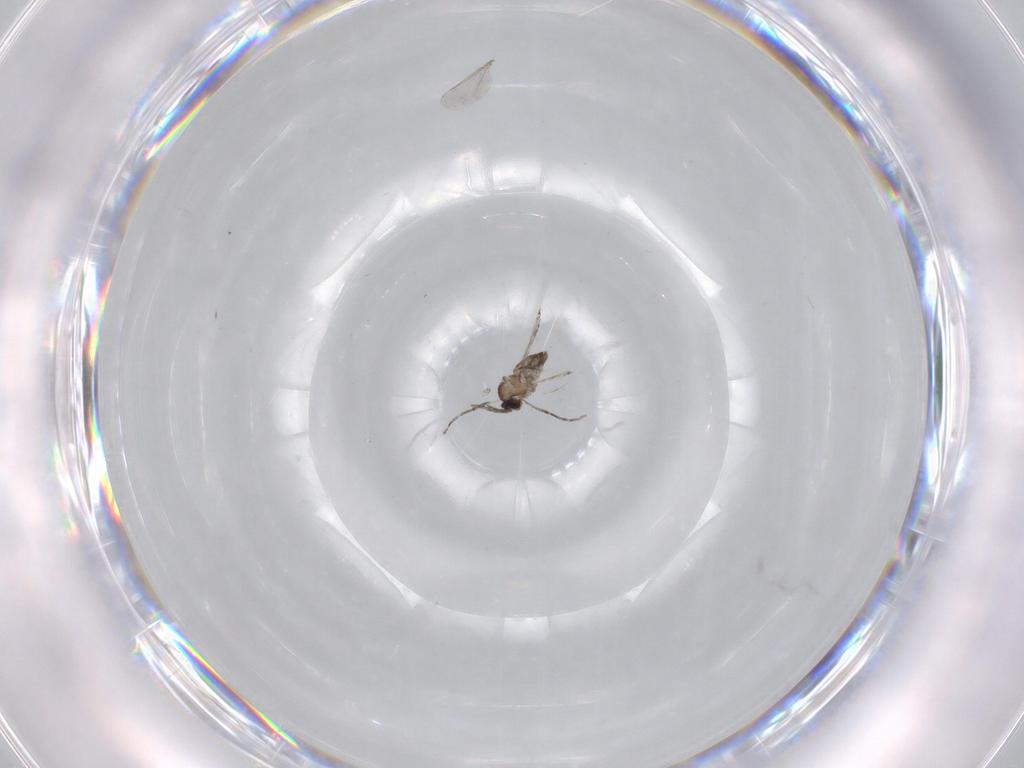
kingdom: Animalia
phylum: Arthropoda
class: Insecta
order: Diptera
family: Cecidomyiidae
